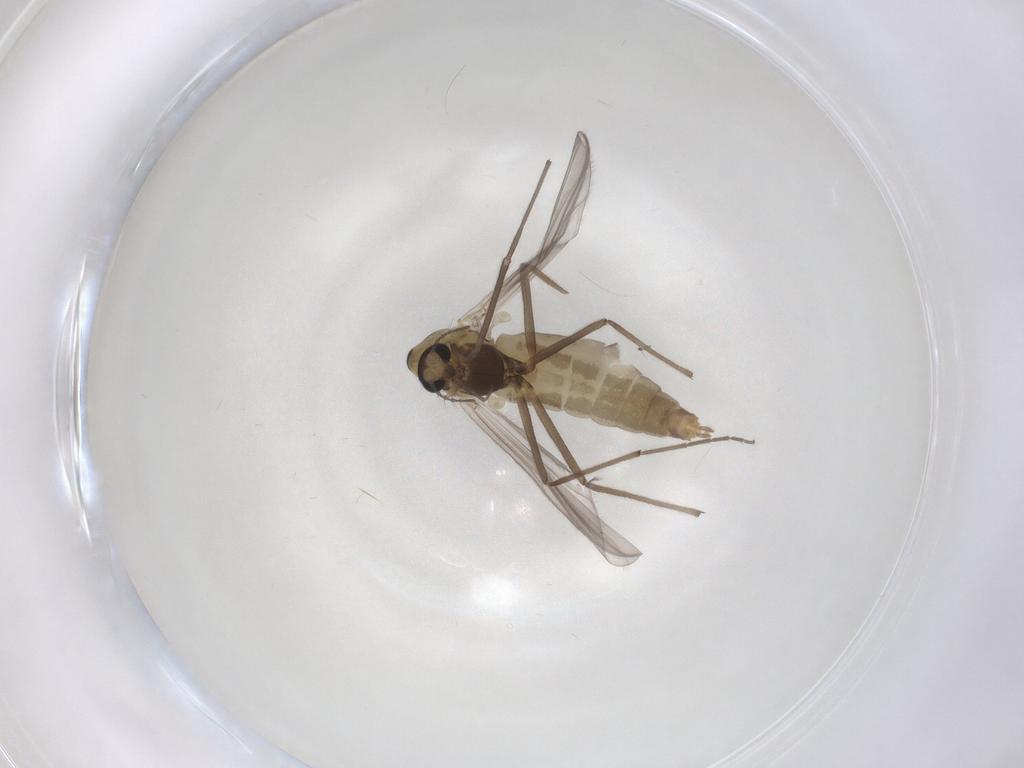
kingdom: Animalia
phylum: Arthropoda
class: Insecta
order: Diptera
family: Chironomidae
